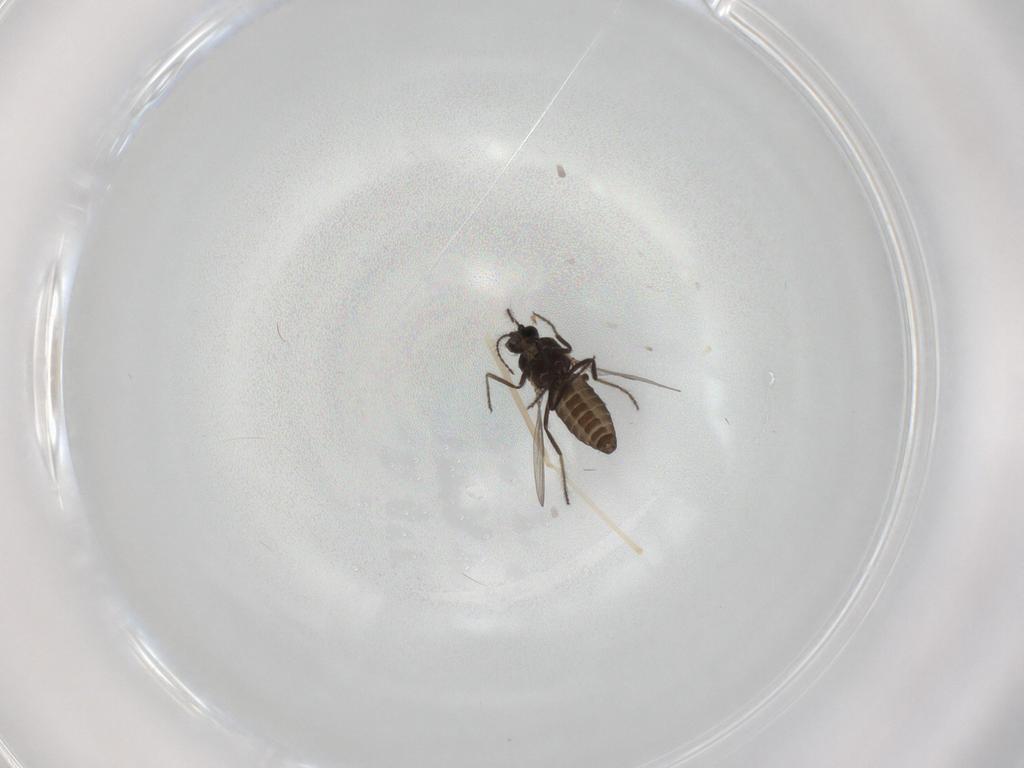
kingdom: Animalia
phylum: Arthropoda
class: Insecta
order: Diptera
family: Ceratopogonidae
